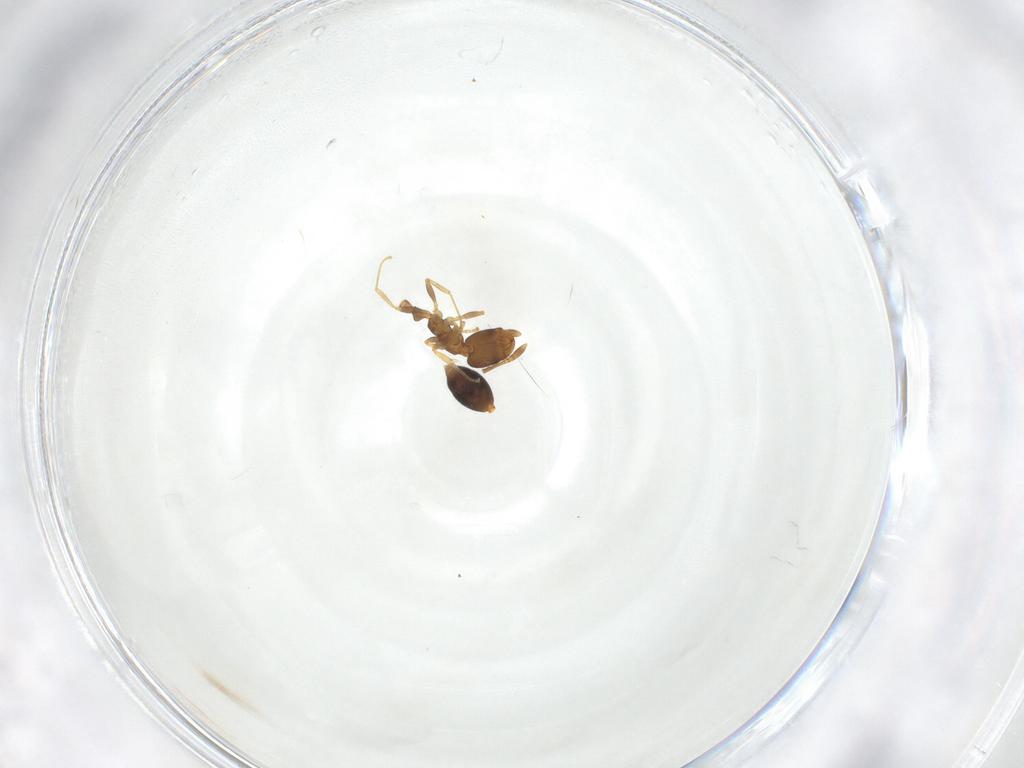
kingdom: Animalia
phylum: Arthropoda
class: Insecta
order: Hymenoptera
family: Formicidae
